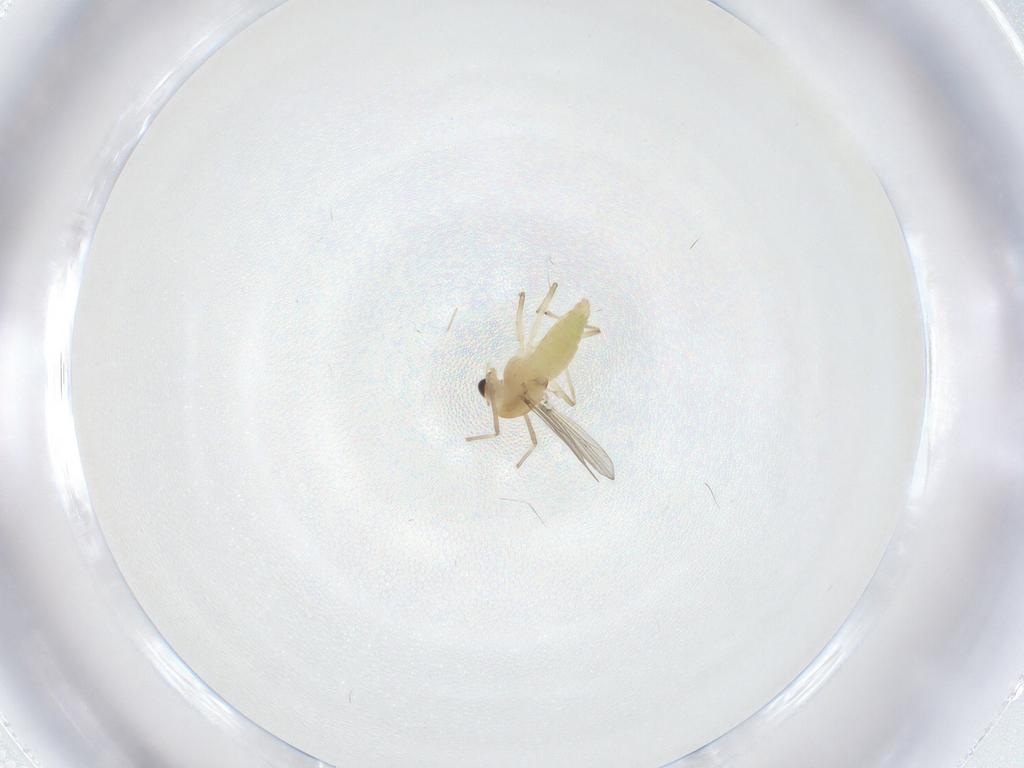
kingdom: Animalia
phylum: Arthropoda
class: Insecta
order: Diptera
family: Chironomidae
